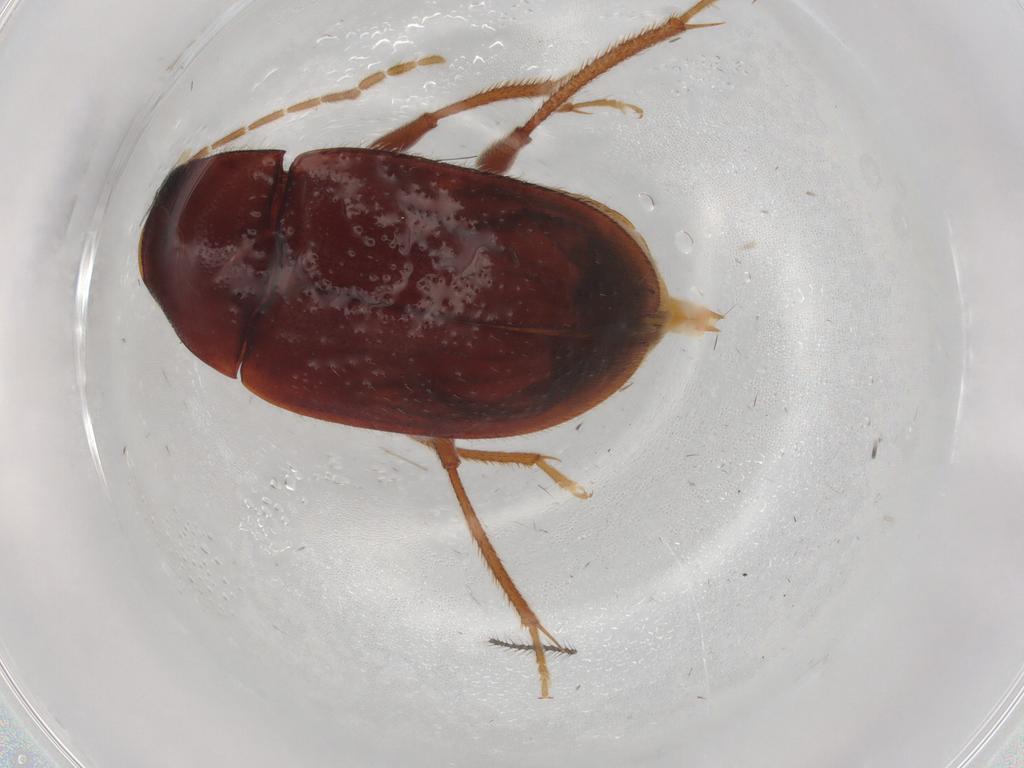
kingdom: Animalia
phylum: Arthropoda
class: Insecta
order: Coleoptera
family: Ptilodactylidae
